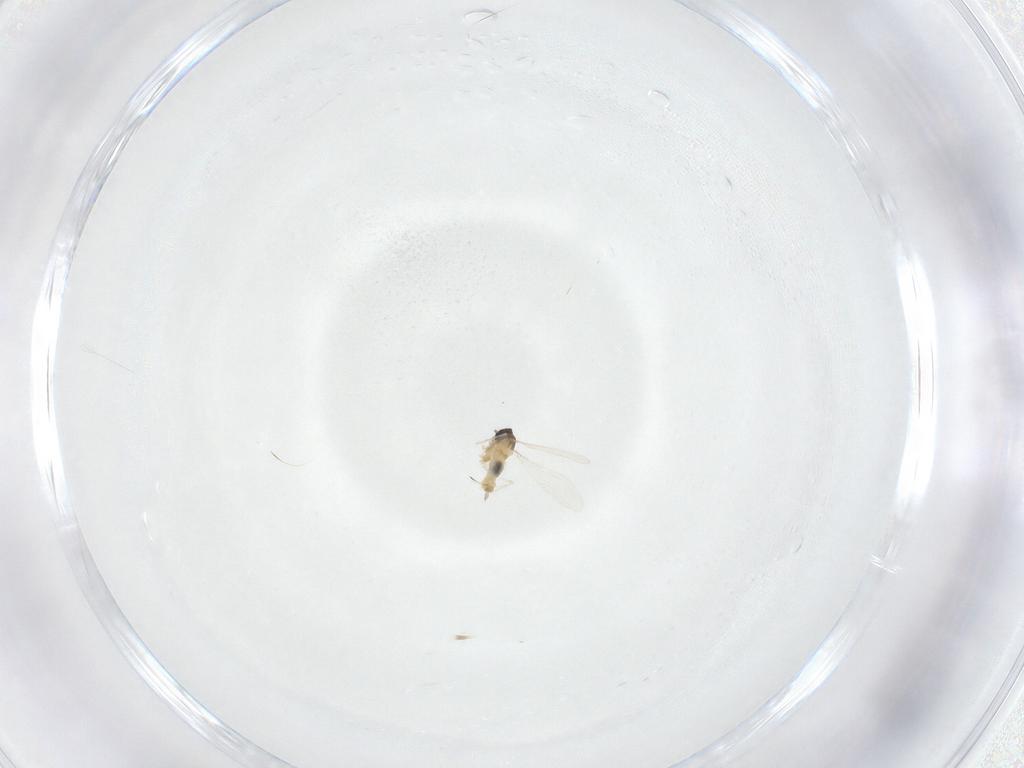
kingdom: Animalia
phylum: Arthropoda
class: Insecta
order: Diptera
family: Cecidomyiidae
